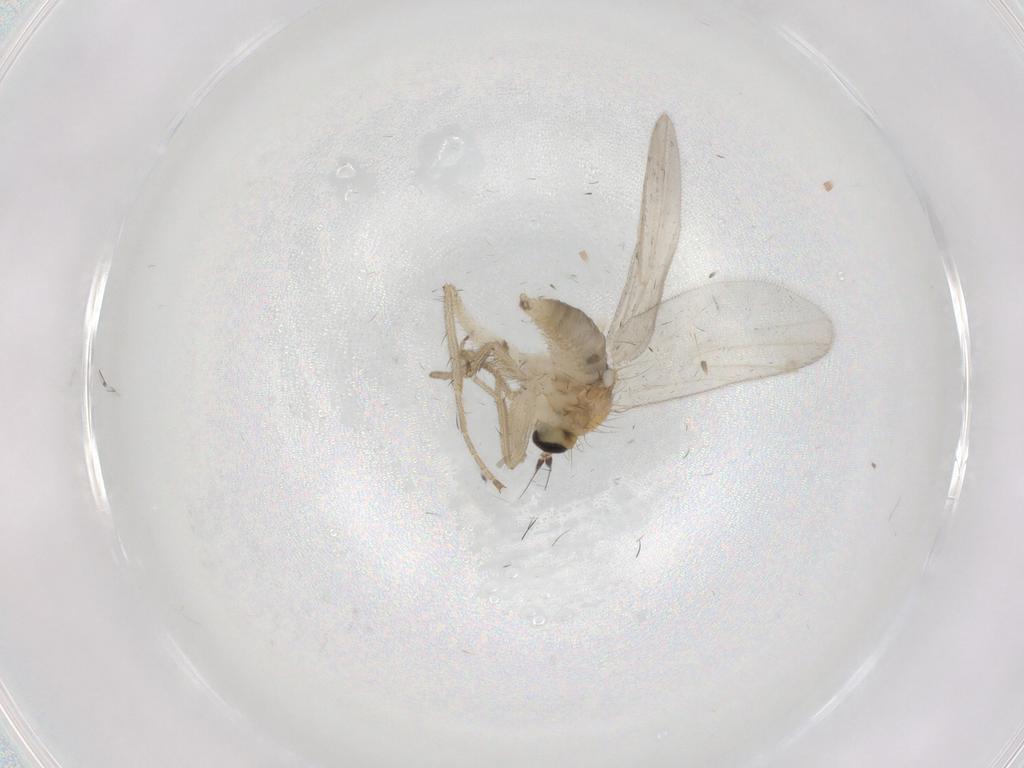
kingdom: Animalia
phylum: Arthropoda
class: Insecta
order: Diptera
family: Hybotidae
